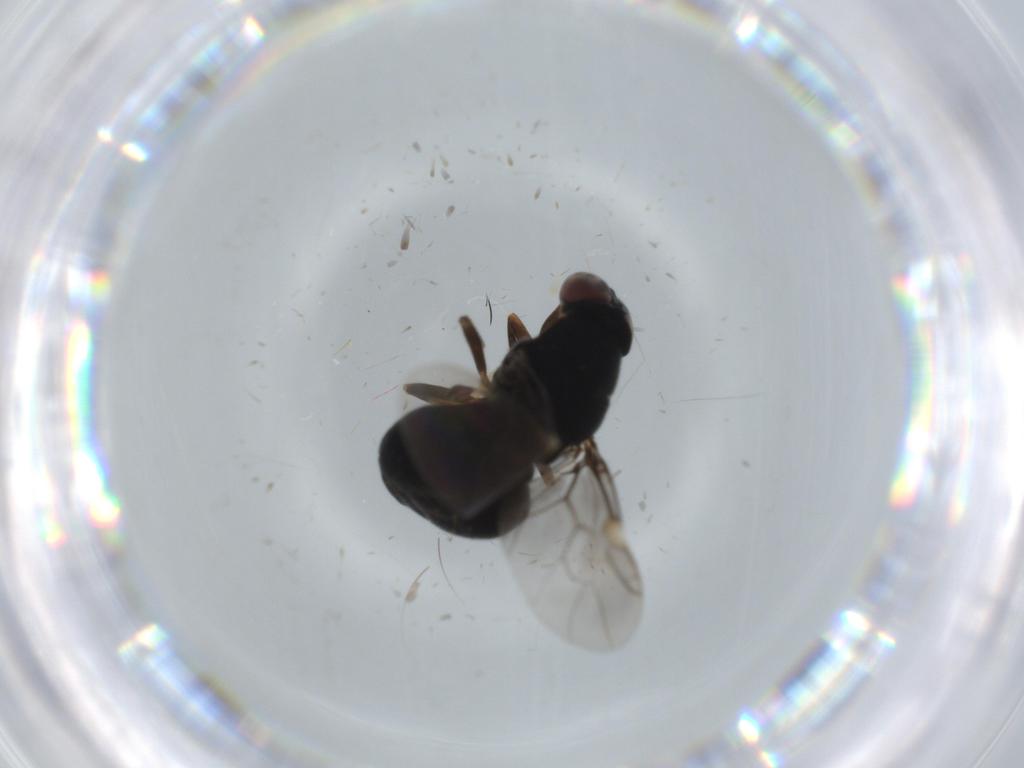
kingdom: Animalia
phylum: Arthropoda
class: Insecta
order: Diptera
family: Stratiomyidae
